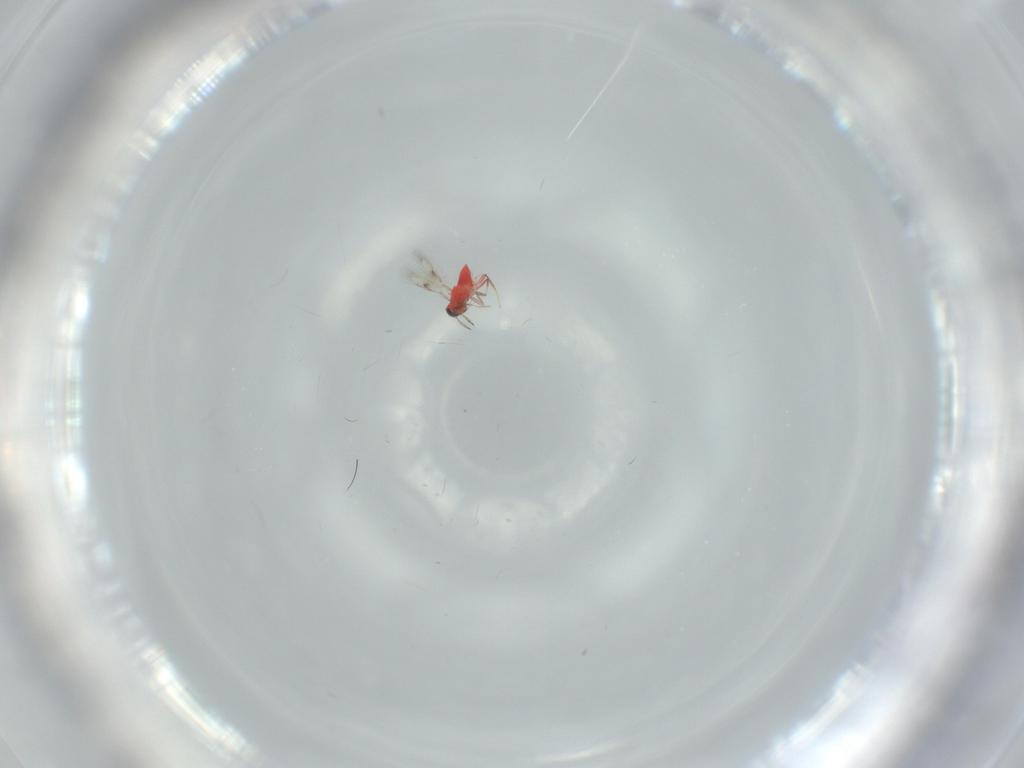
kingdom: Animalia
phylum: Arthropoda
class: Insecta
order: Hymenoptera
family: Trichogrammatidae
